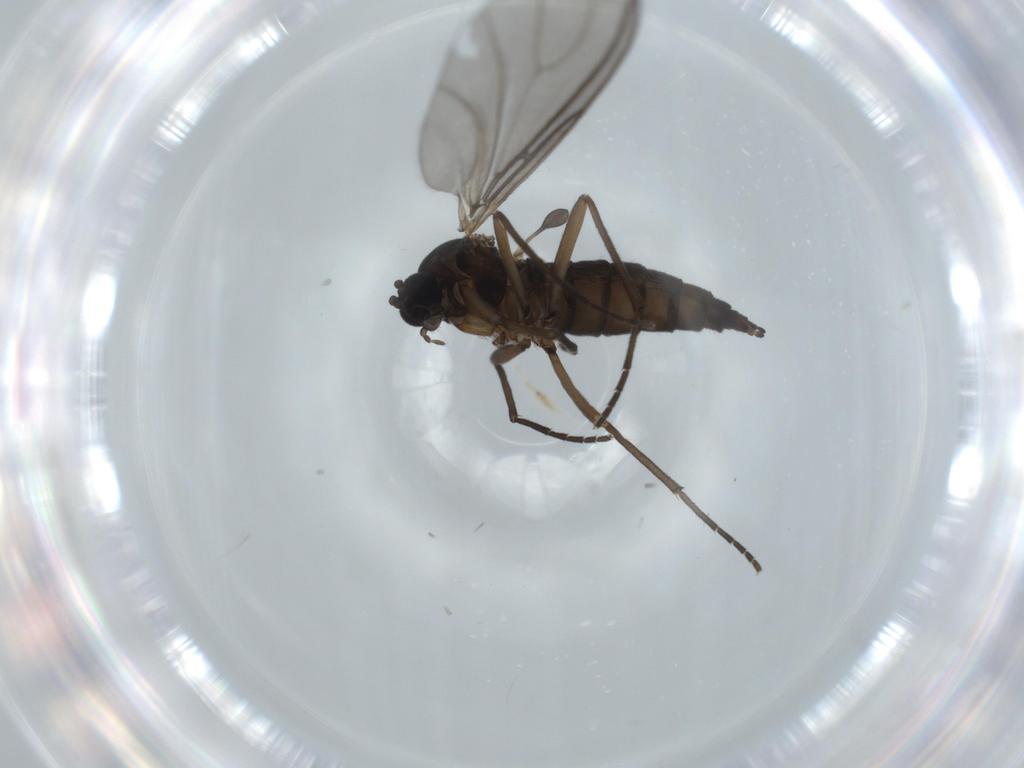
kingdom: Animalia
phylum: Arthropoda
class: Insecta
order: Diptera
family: Sciaridae
